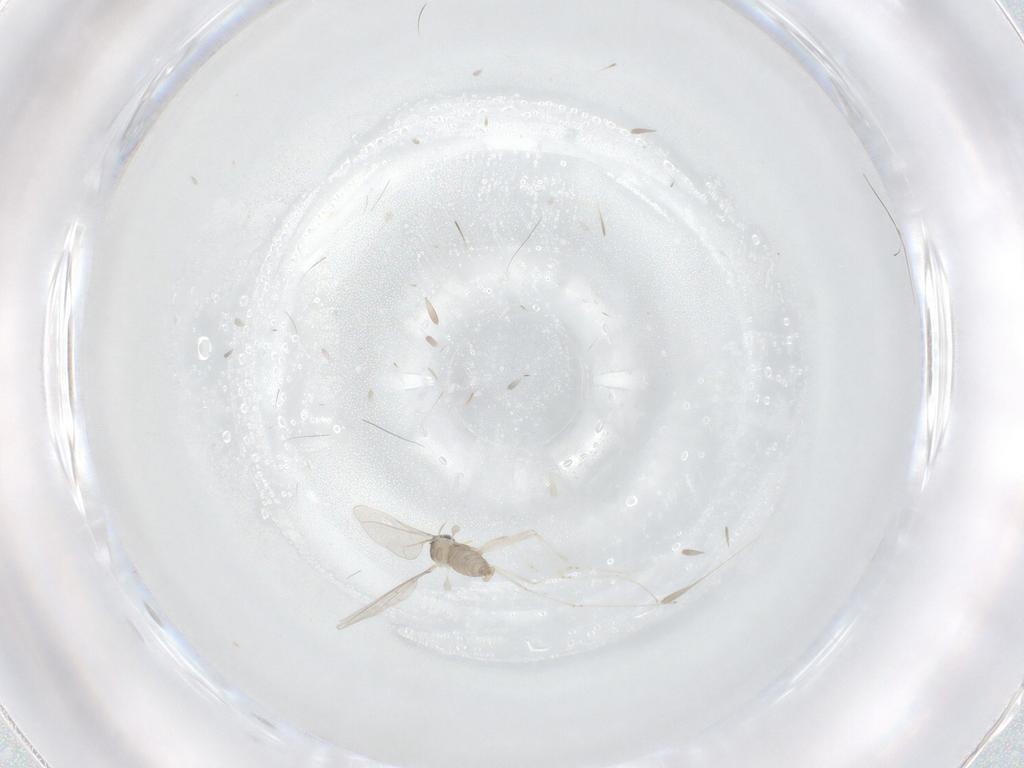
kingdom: Animalia
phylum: Arthropoda
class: Insecta
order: Diptera
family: Cecidomyiidae
